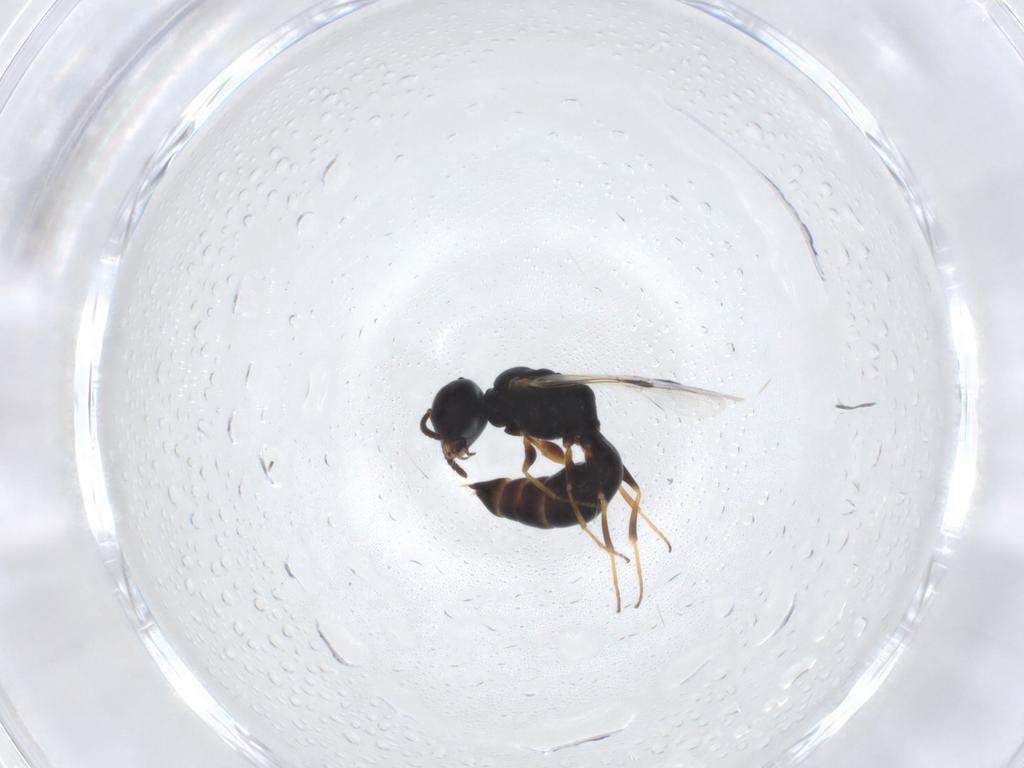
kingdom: Animalia
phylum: Arthropoda
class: Insecta
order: Hymenoptera
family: Pemphredonidae
